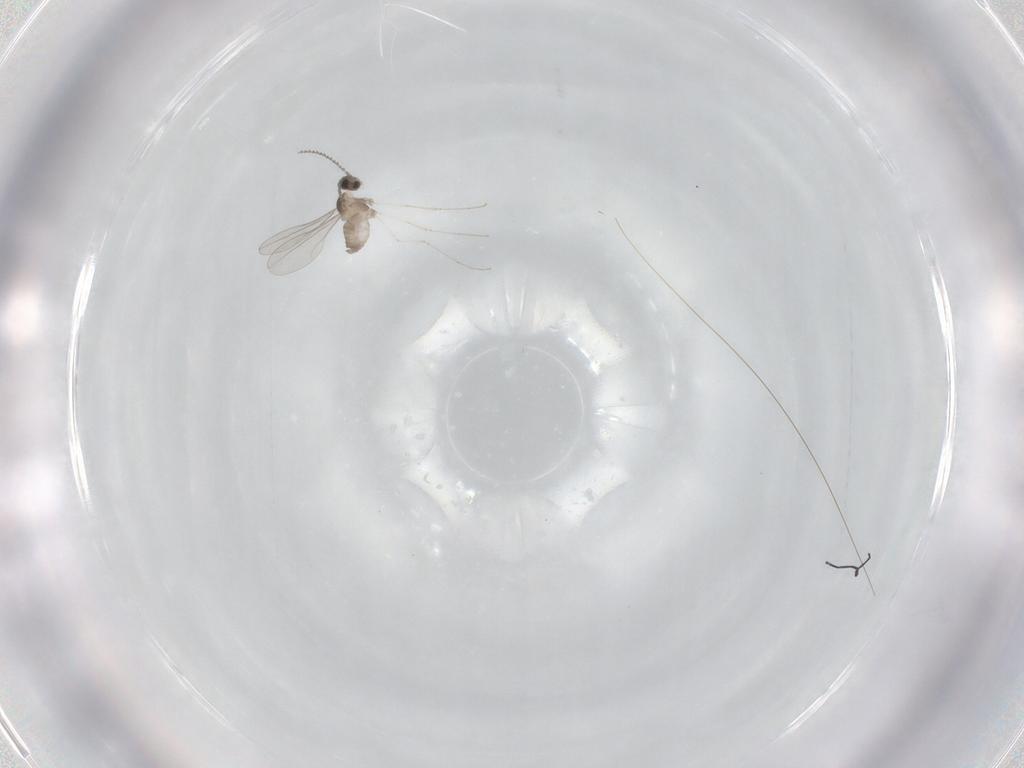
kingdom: Animalia
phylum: Arthropoda
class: Insecta
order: Diptera
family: Cecidomyiidae
